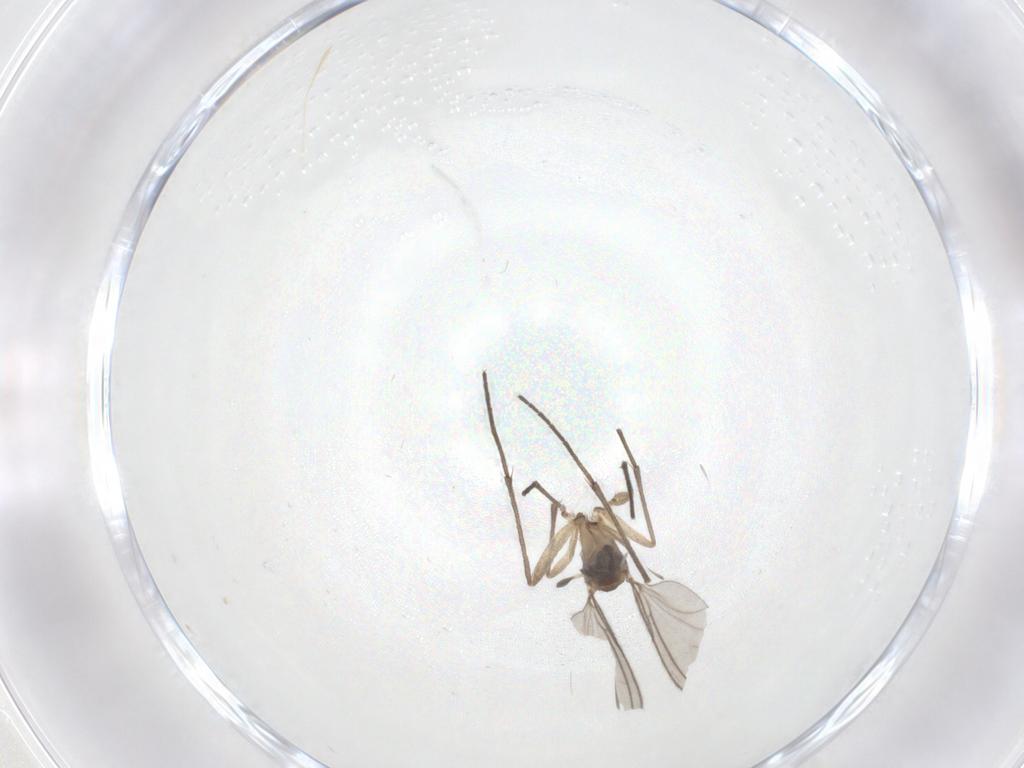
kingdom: Animalia
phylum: Arthropoda
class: Insecta
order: Diptera
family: Sciaridae
